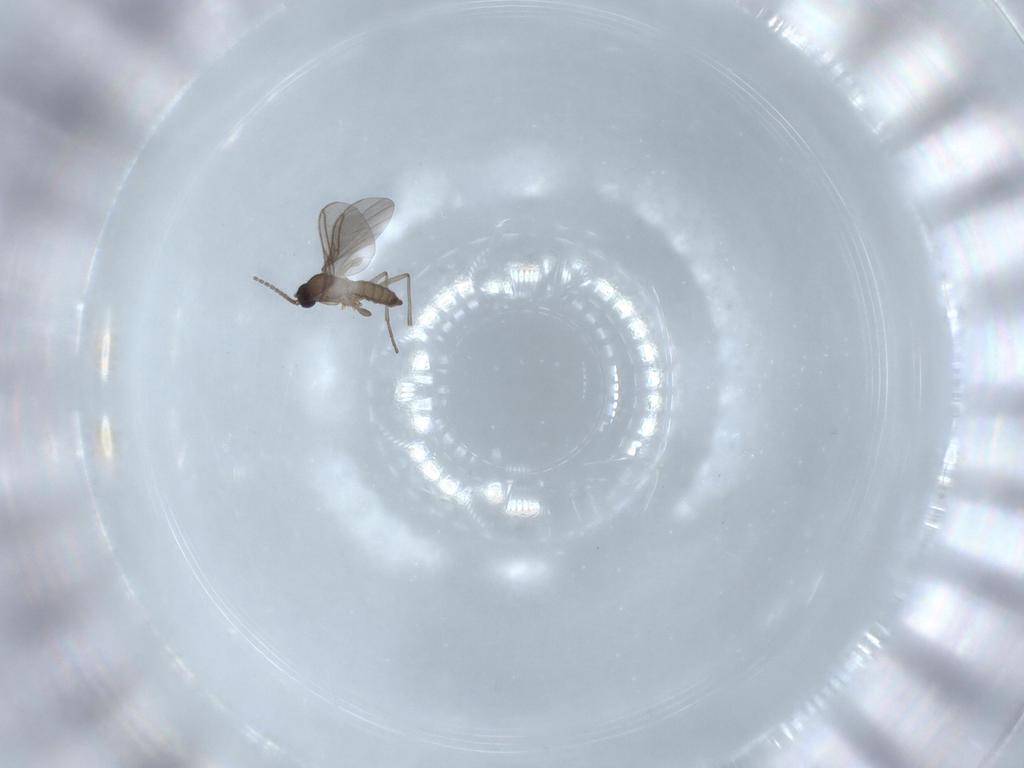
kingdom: Animalia
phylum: Arthropoda
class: Insecta
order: Diptera
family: Sciaridae
